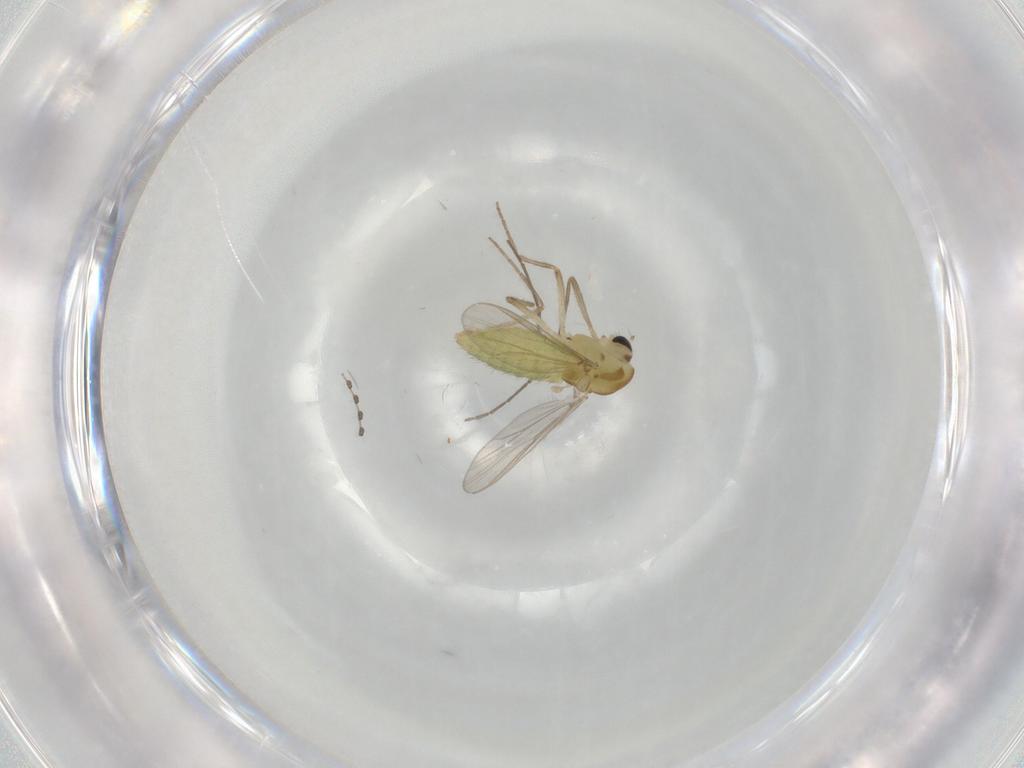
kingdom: Animalia
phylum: Arthropoda
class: Insecta
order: Diptera
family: Chironomidae
